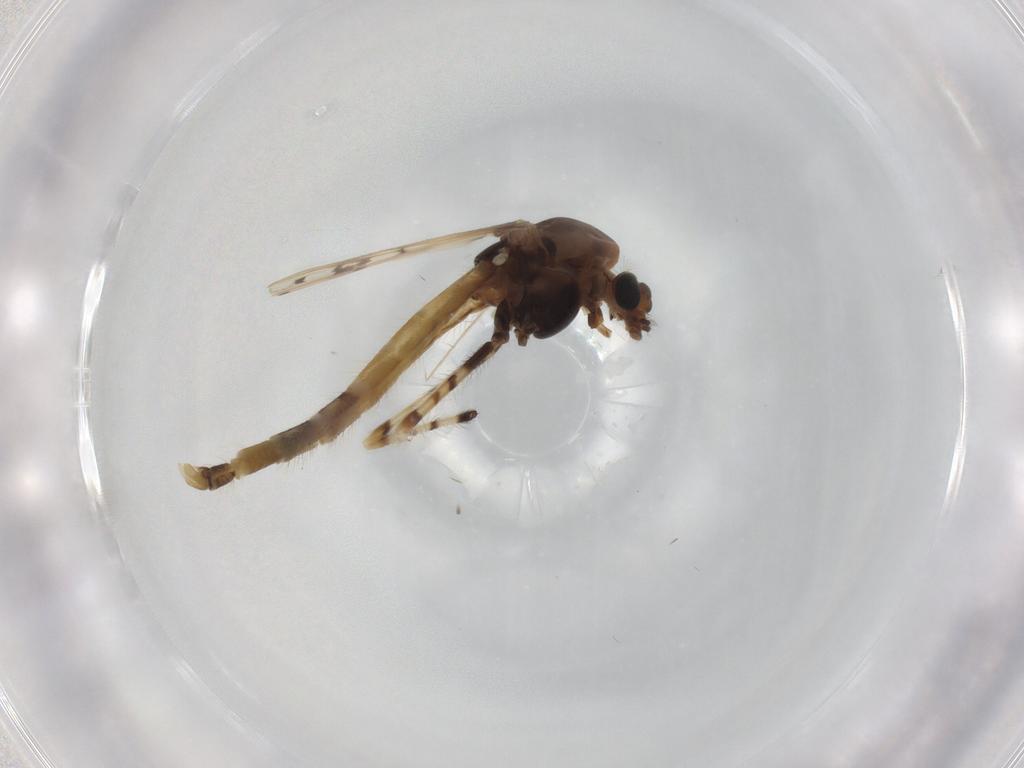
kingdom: Animalia
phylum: Arthropoda
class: Insecta
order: Diptera
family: Chironomidae
